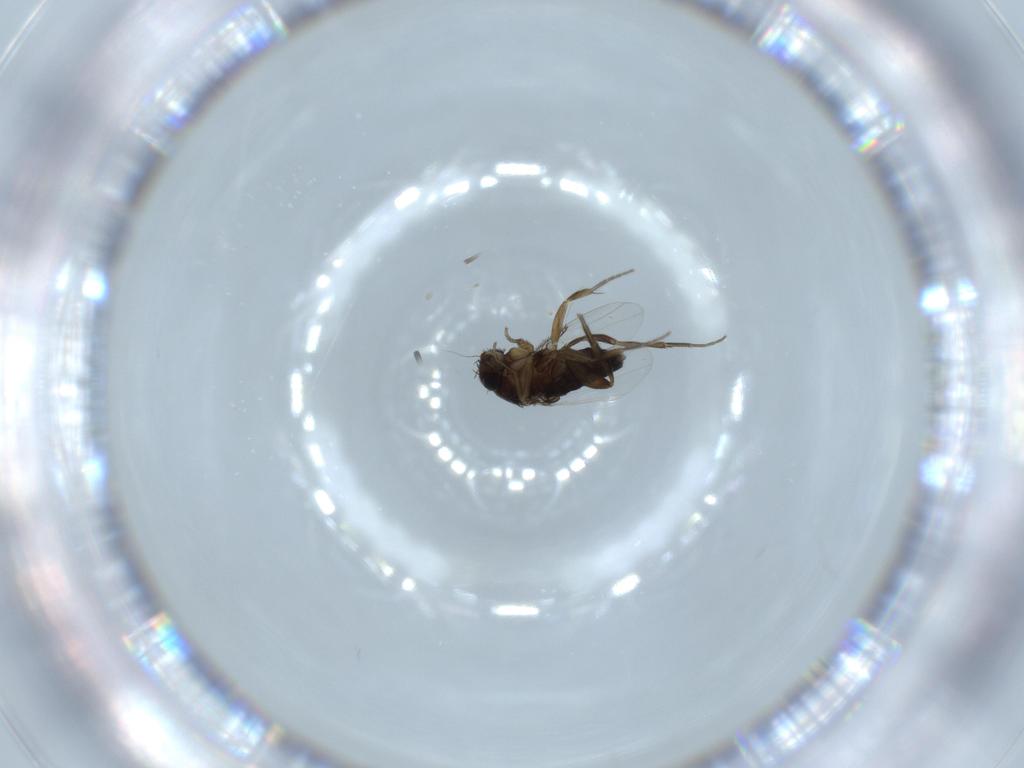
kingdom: Animalia
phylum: Arthropoda
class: Insecta
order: Diptera
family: Phoridae
